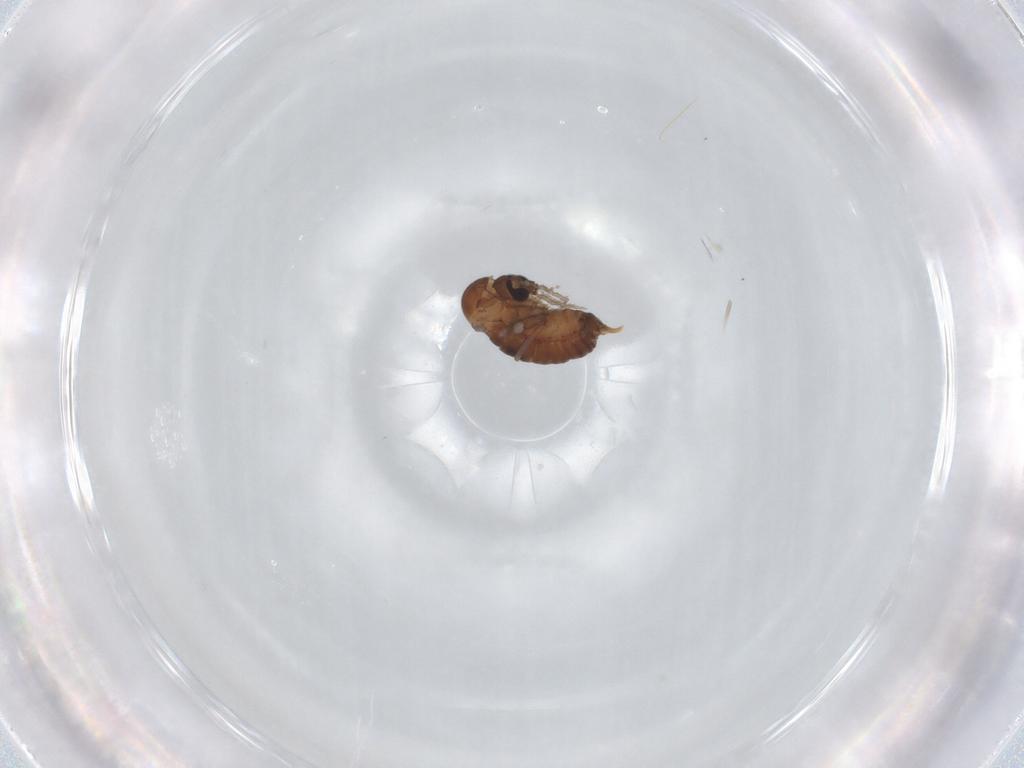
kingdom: Animalia
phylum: Arthropoda
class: Insecta
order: Diptera
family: Psychodidae
